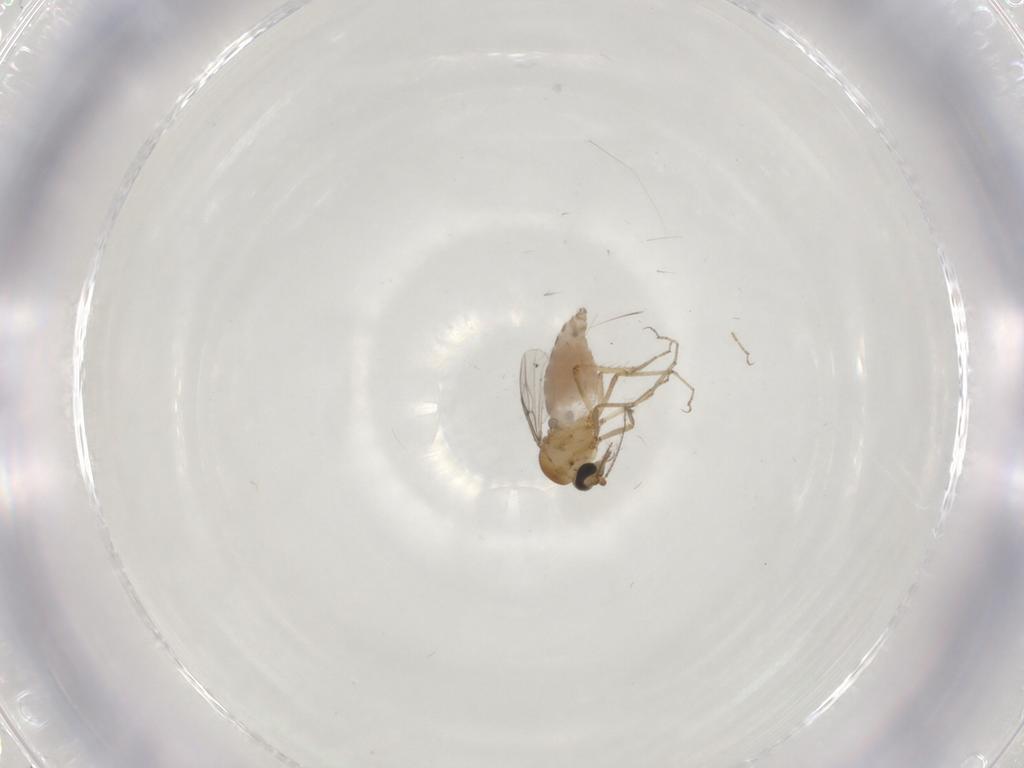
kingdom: Animalia
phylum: Arthropoda
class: Insecta
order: Diptera
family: Ceratopogonidae
